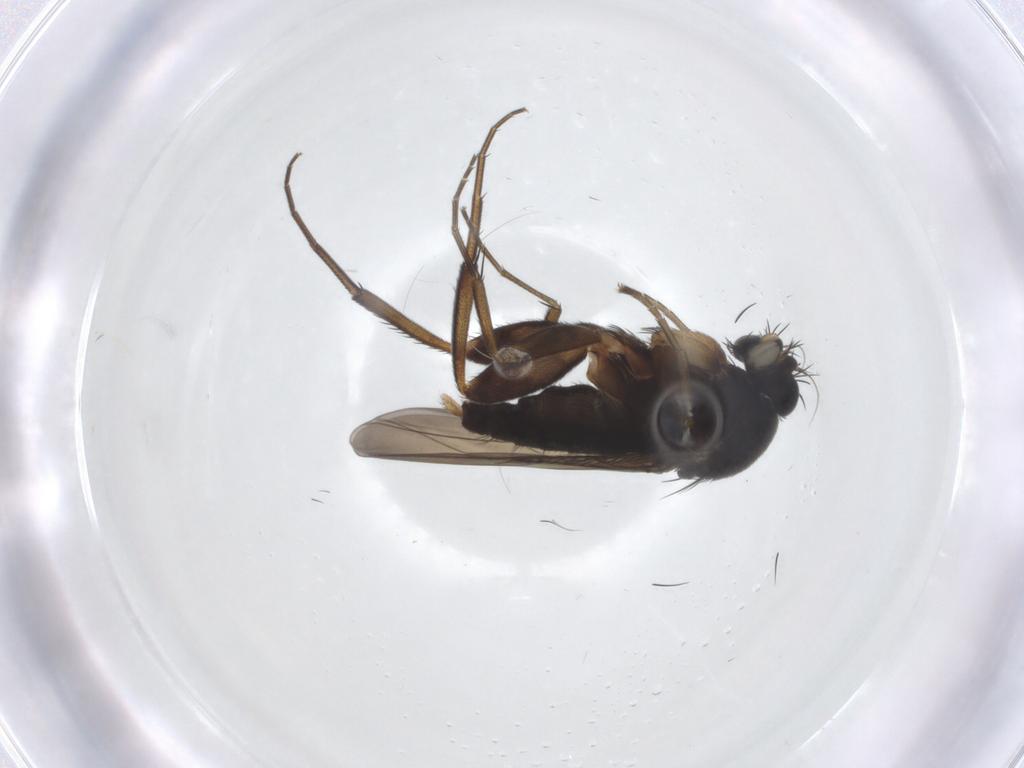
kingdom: Animalia
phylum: Arthropoda
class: Insecta
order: Diptera
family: Phoridae
